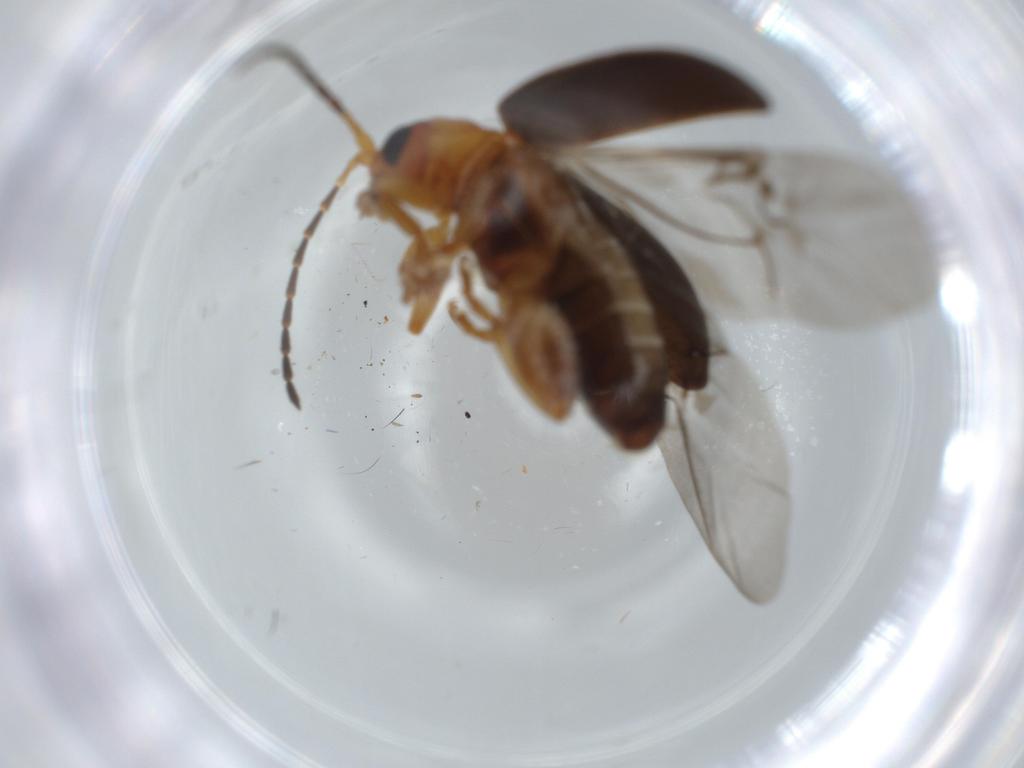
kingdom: Animalia
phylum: Arthropoda
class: Insecta
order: Coleoptera
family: Chrysomelidae
